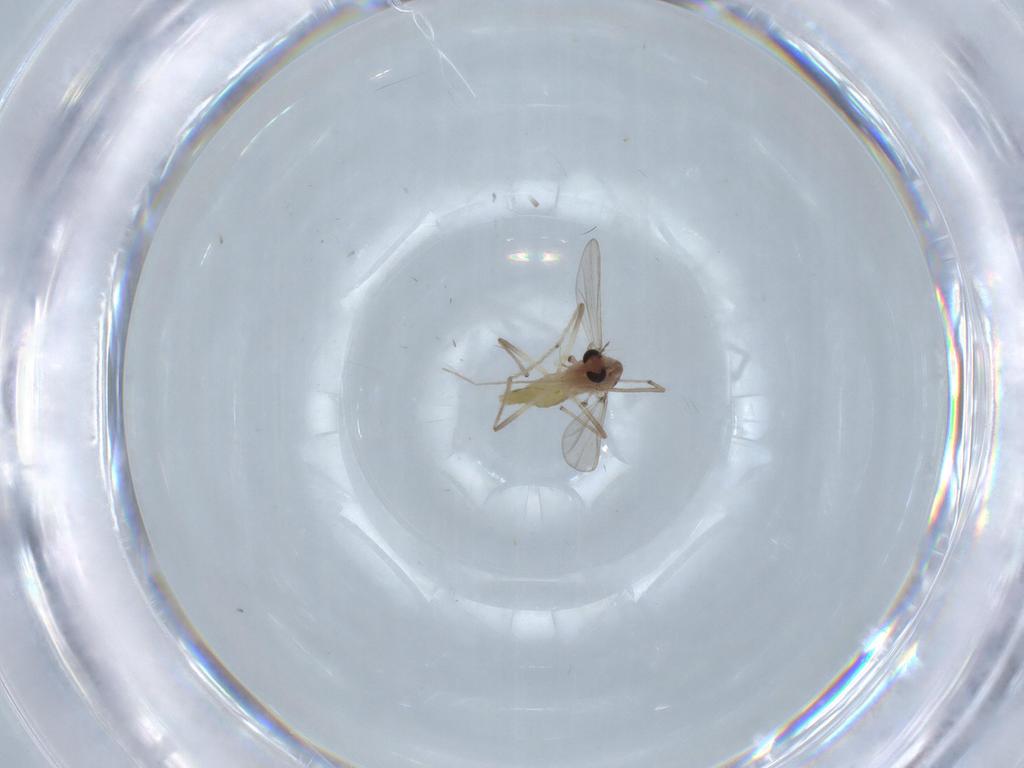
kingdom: Animalia
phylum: Arthropoda
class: Insecta
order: Diptera
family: Chironomidae
